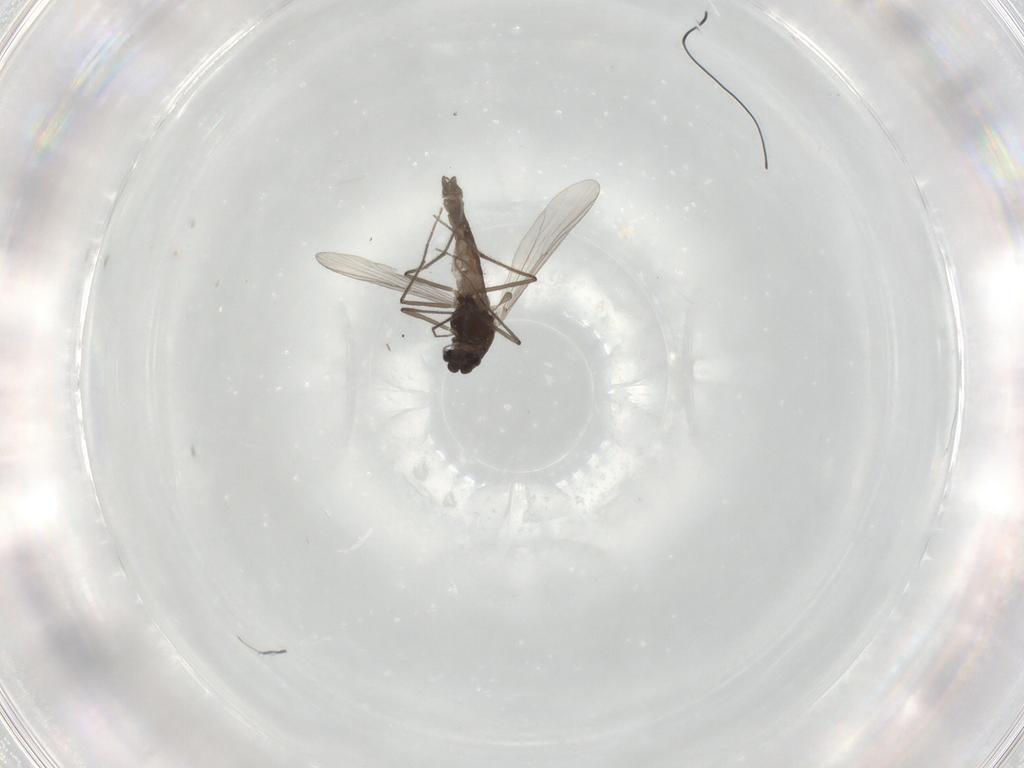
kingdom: Animalia
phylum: Arthropoda
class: Insecta
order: Diptera
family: Chironomidae
